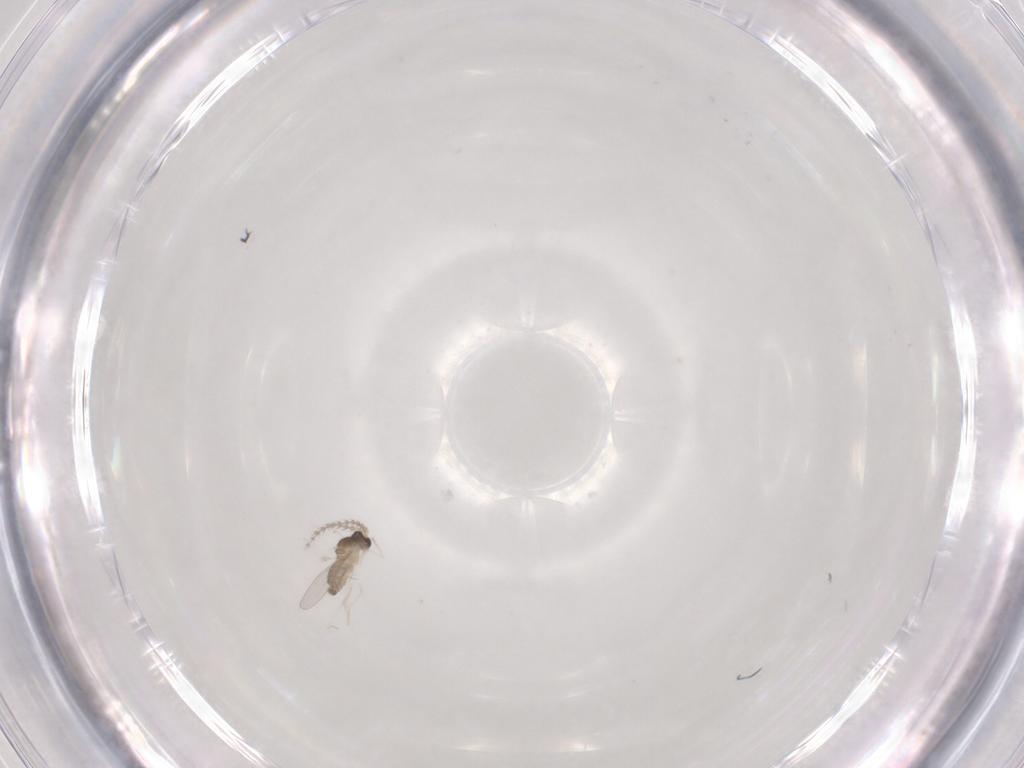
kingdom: Animalia
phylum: Arthropoda
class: Insecta
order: Diptera
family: Cecidomyiidae
